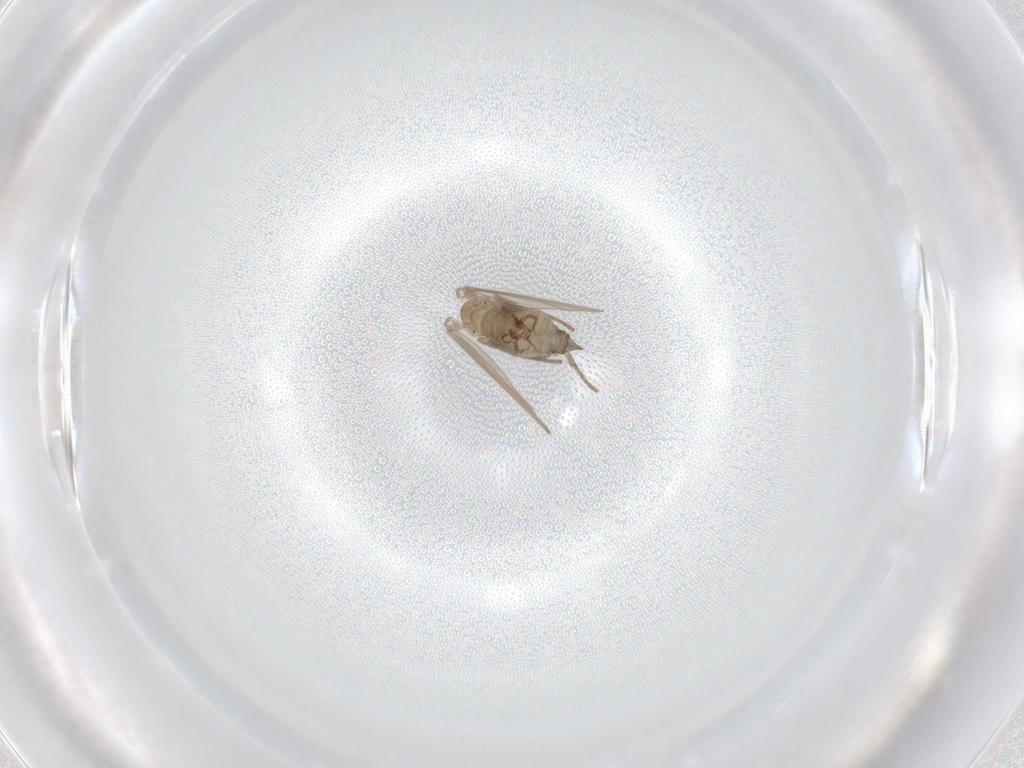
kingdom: Animalia
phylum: Arthropoda
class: Insecta
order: Diptera
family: Psychodidae
